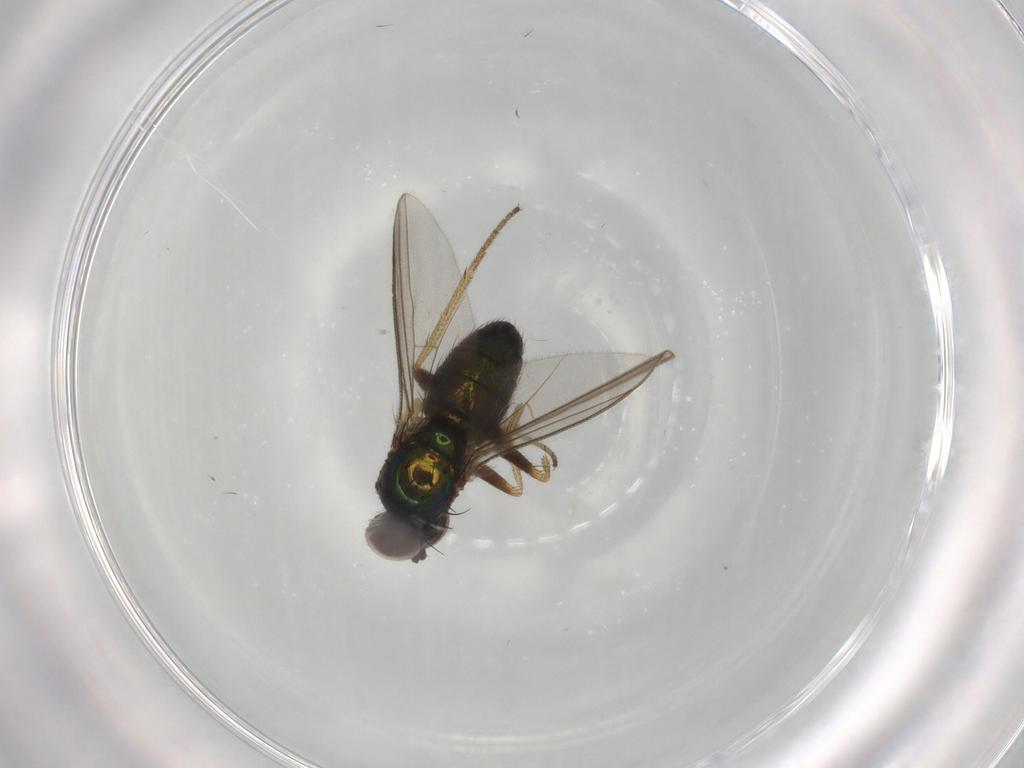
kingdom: Animalia
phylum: Arthropoda
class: Insecta
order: Diptera
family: Dolichopodidae
